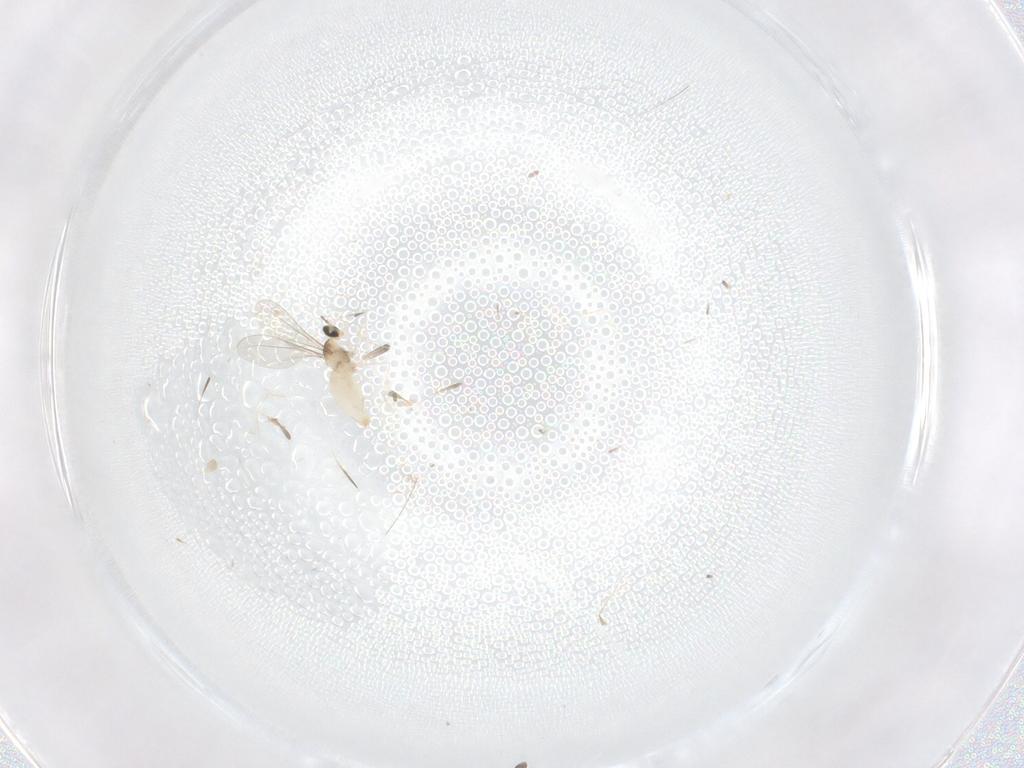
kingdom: Animalia
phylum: Arthropoda
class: Insecta
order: Diptera
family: Cecidomyiidae
